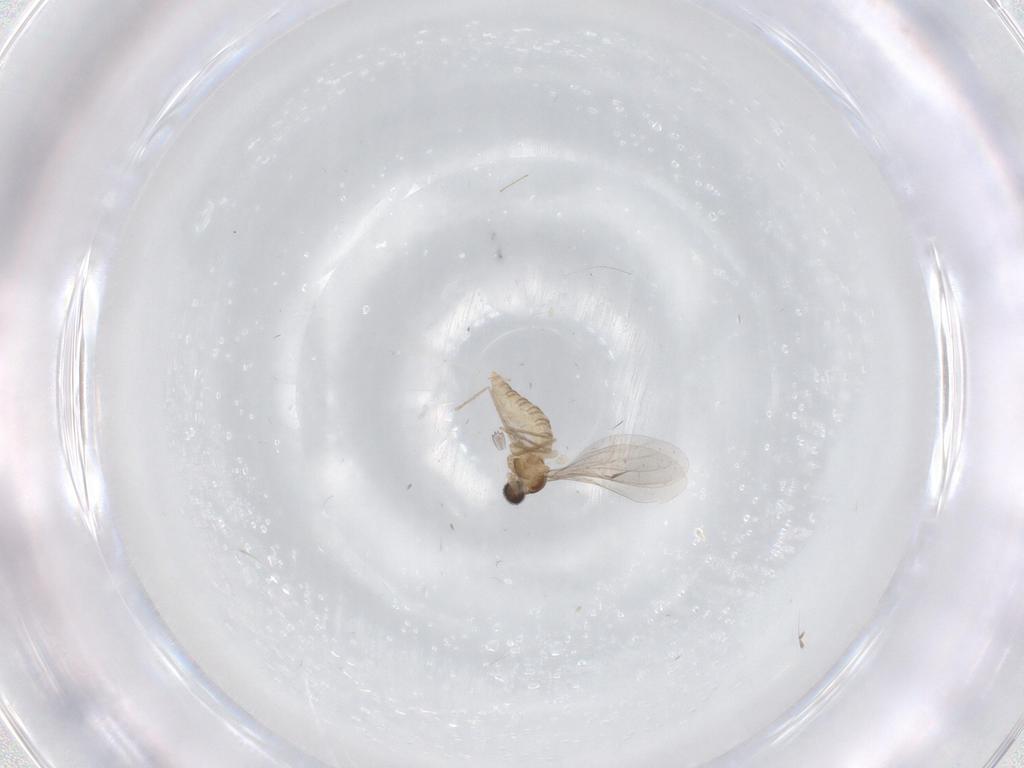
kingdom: Animalia
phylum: Arthropoda
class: Insecta
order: Diptera
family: Cecidomyiidae
